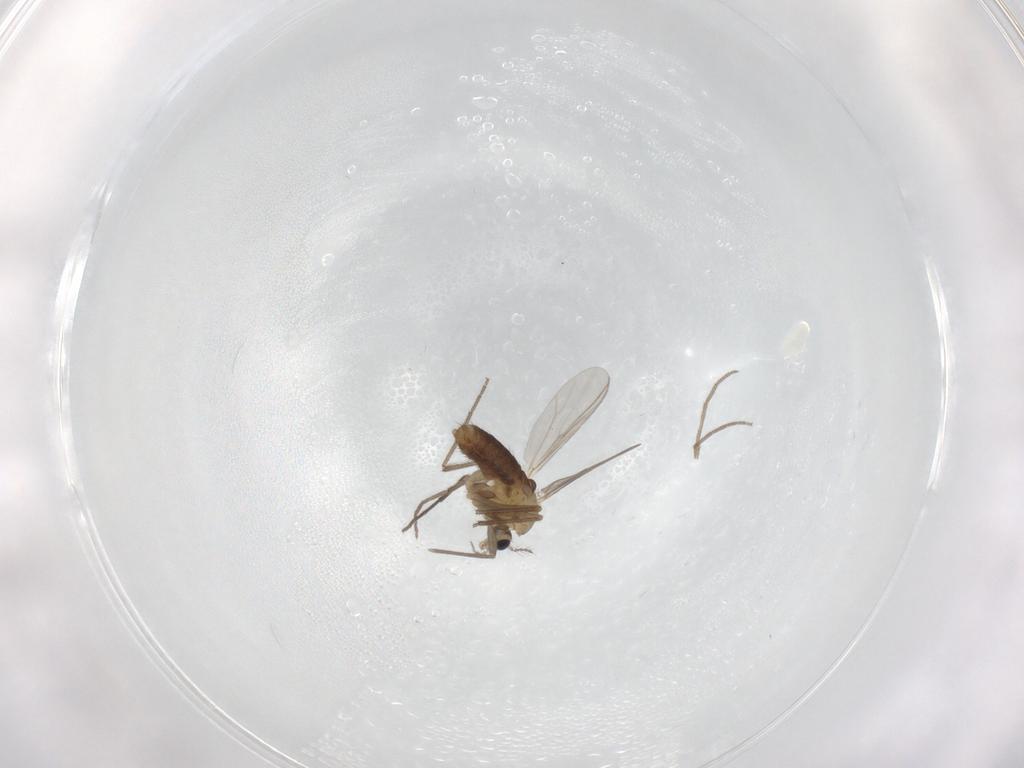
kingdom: Animalia
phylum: Arthropoda
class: Insecta
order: Diptera
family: Chironomidae
